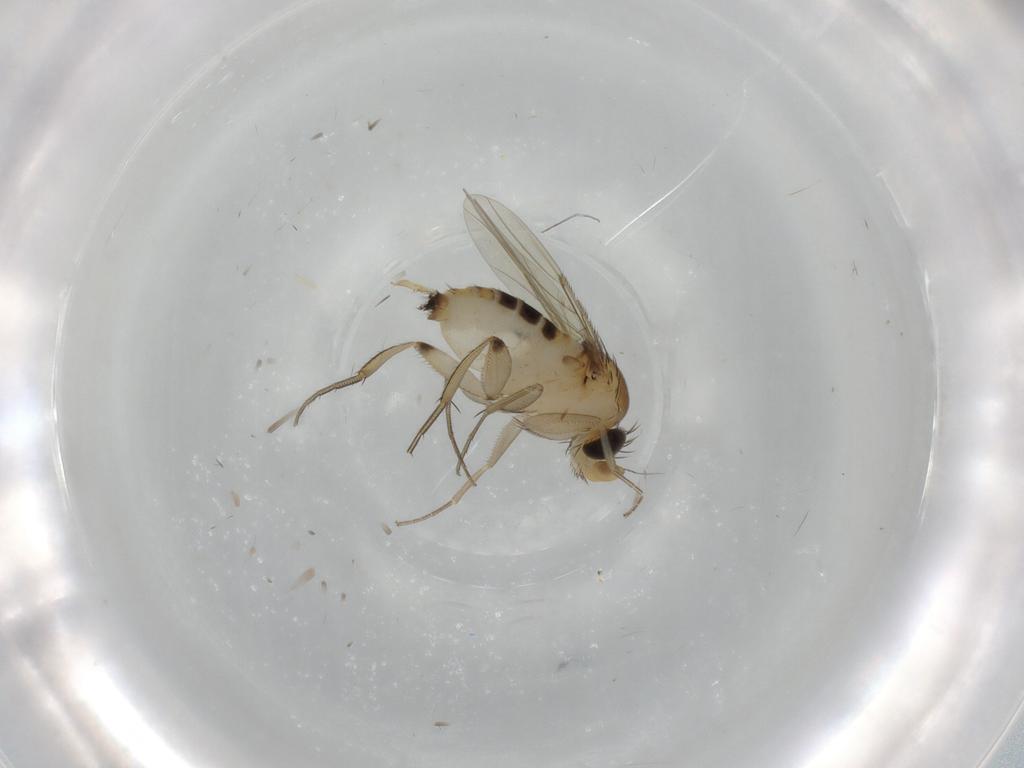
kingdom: Animalia
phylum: Arthropoda
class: Insecta
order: Diptera
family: Phoridae
